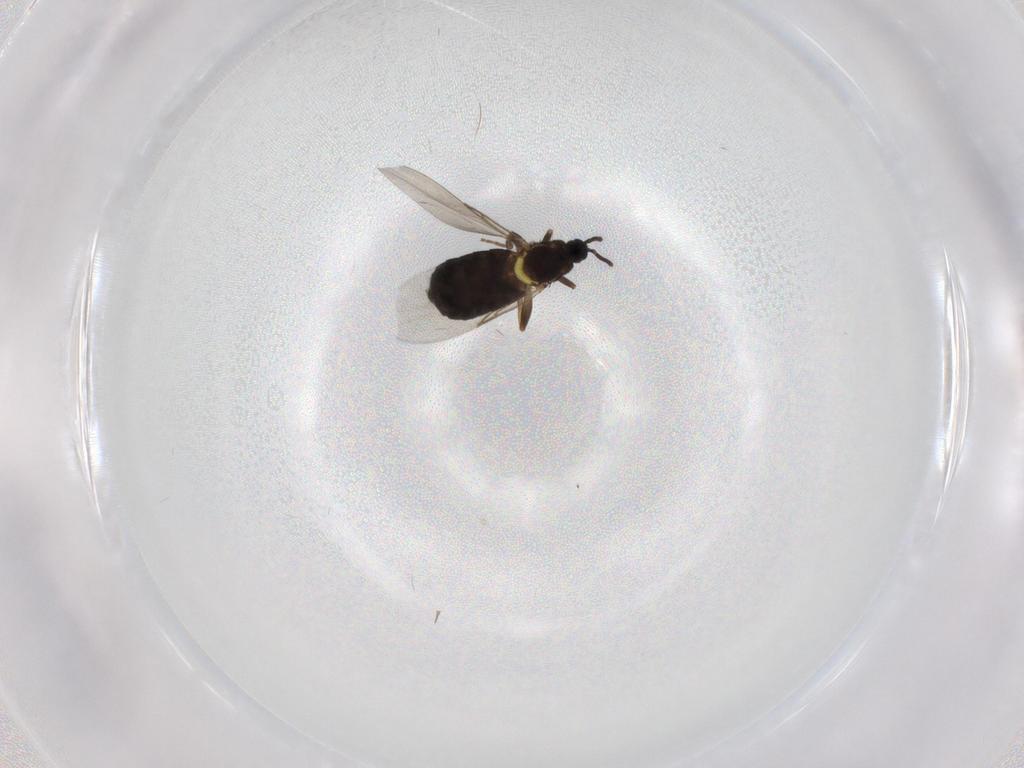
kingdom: Animalia
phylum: Arthropoda
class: Insecta
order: Diptera
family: Scatopsidae
